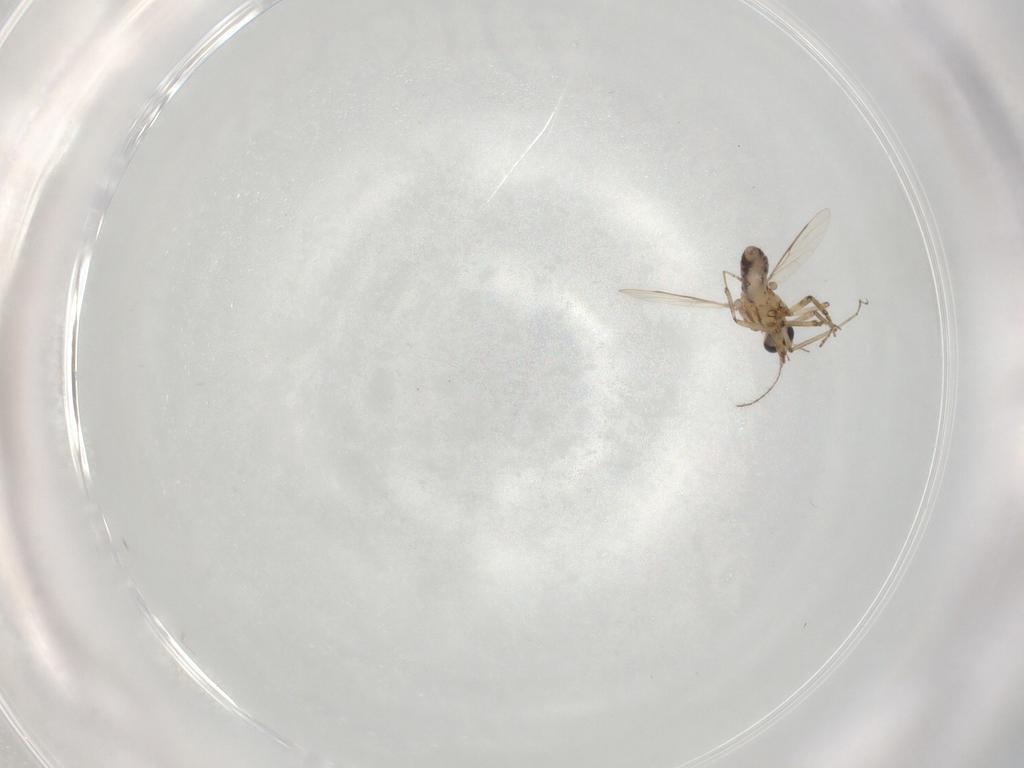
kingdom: Animalia
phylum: Arthropoda
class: Insecta
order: Diptera
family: Ceratopogonidae
